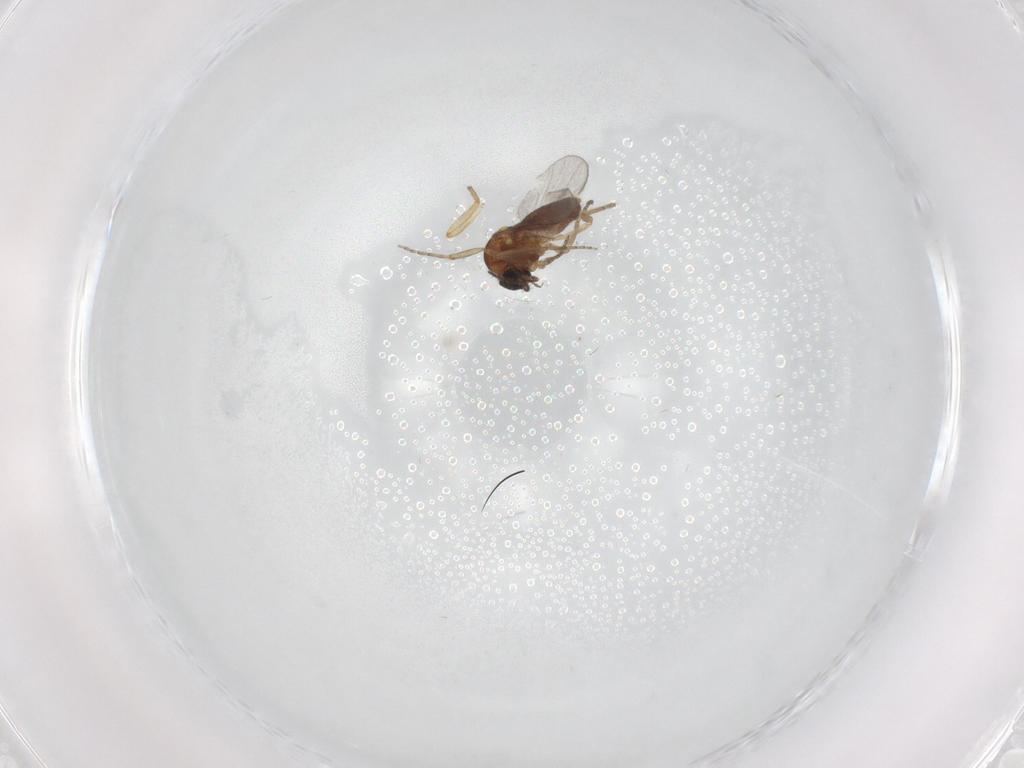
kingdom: Animalia
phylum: Arthropoda
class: Insecta
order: Diptera
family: Ceratopogonidae
